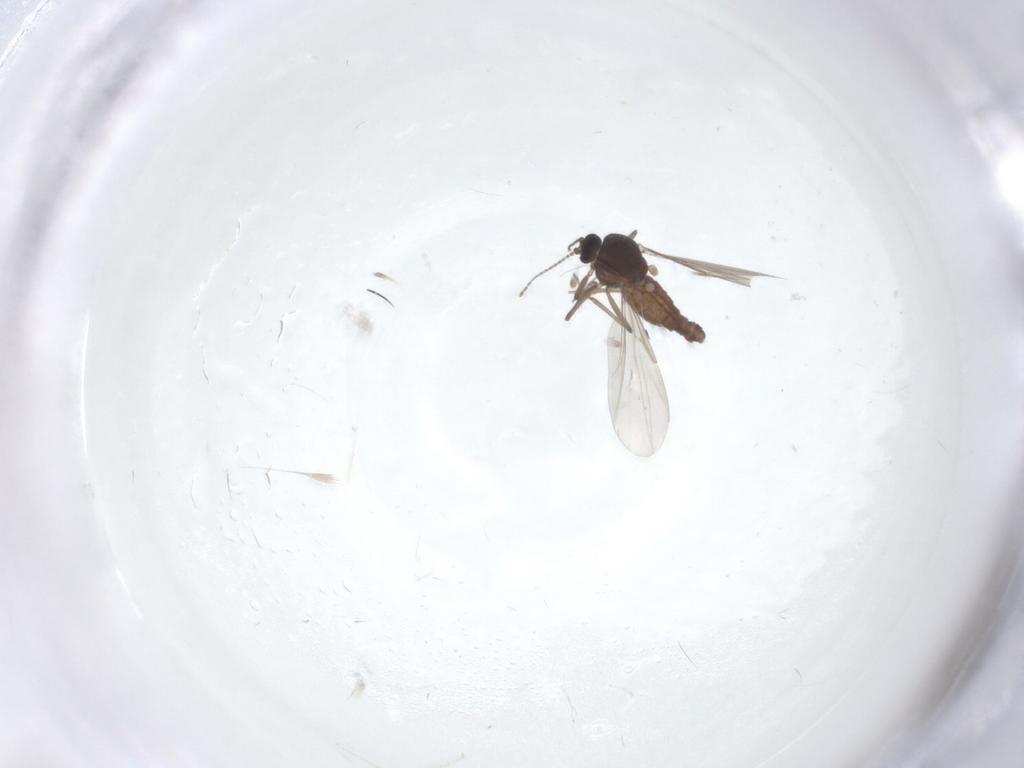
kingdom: Animalia
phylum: Arthropoda
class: Insecta
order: Diptera
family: Ceratopogonidae
